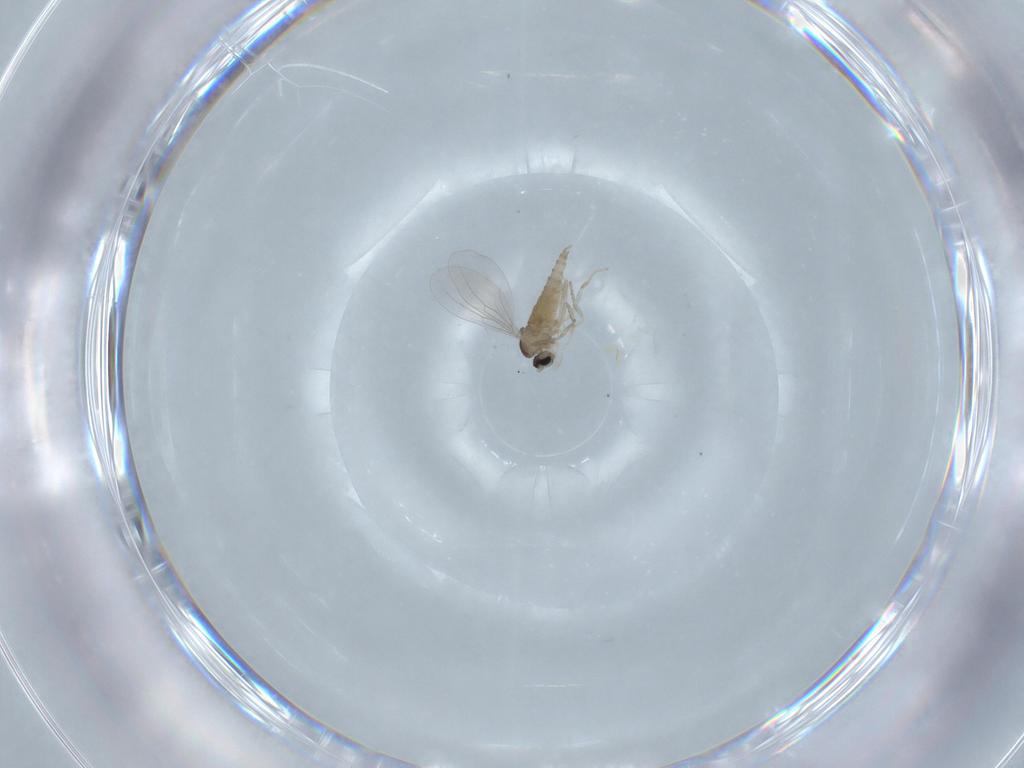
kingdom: Animalia
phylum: Arthropoda
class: Insecta
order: Diptera
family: Cecidomyiidae
